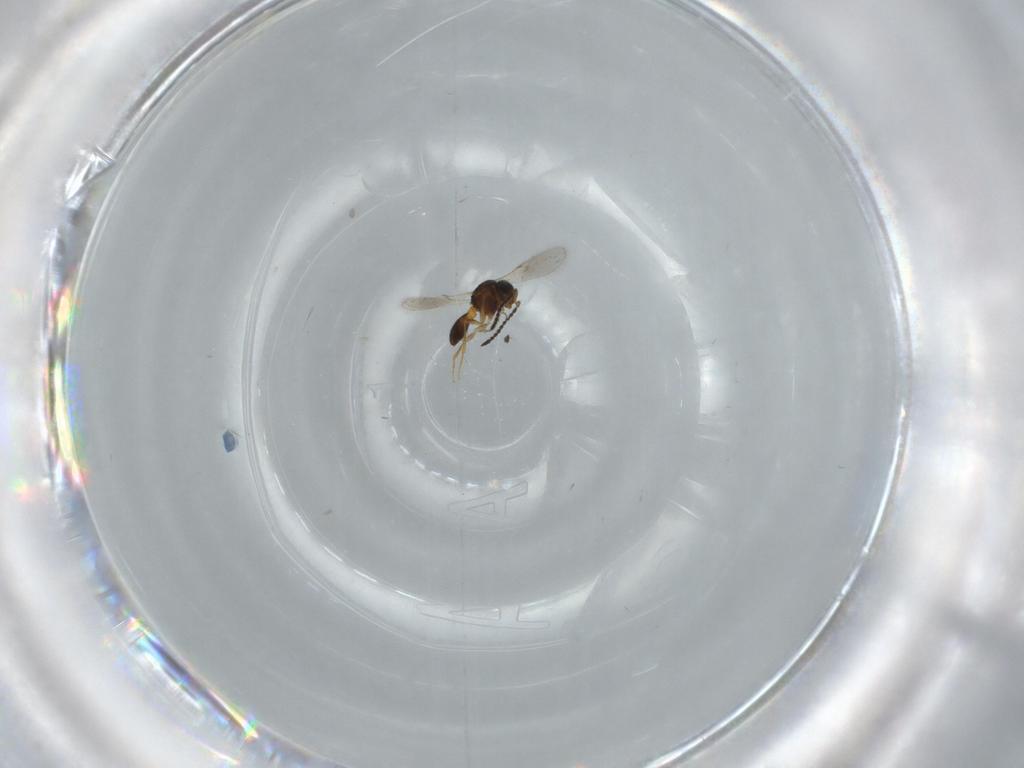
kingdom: Animalia
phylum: Arthropoda
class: Insecta
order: Hymenoptera
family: Scelionidae
